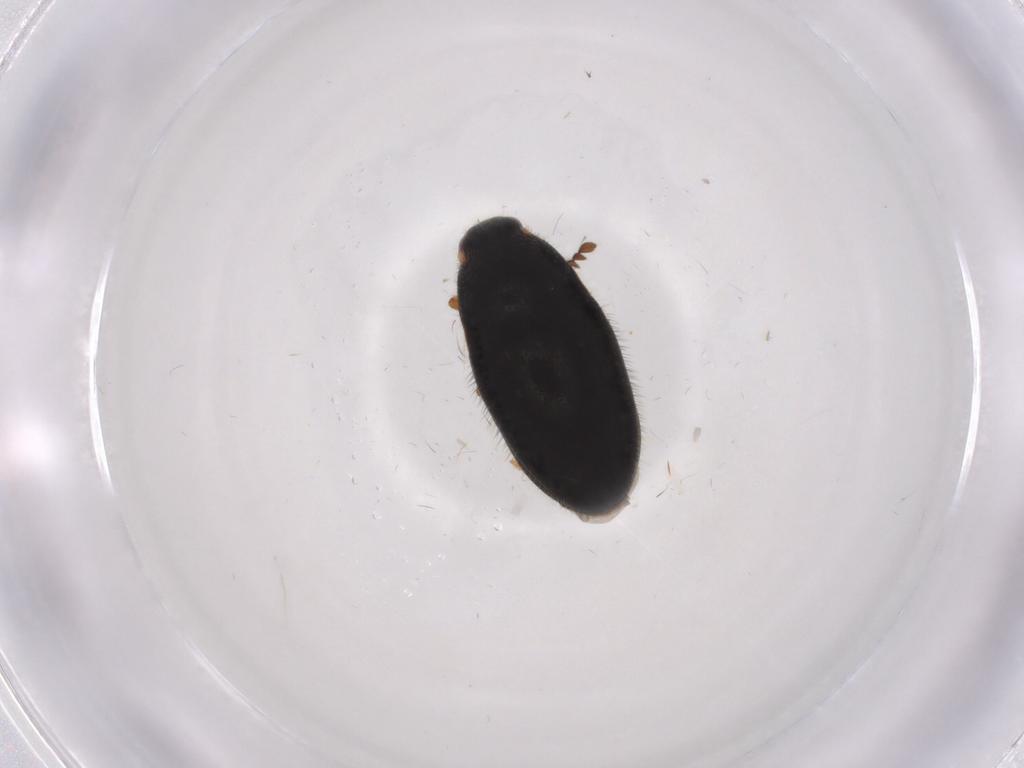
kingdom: Animalia
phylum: Arthropoda
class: Insecta
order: Coleoptera
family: Elateridae
